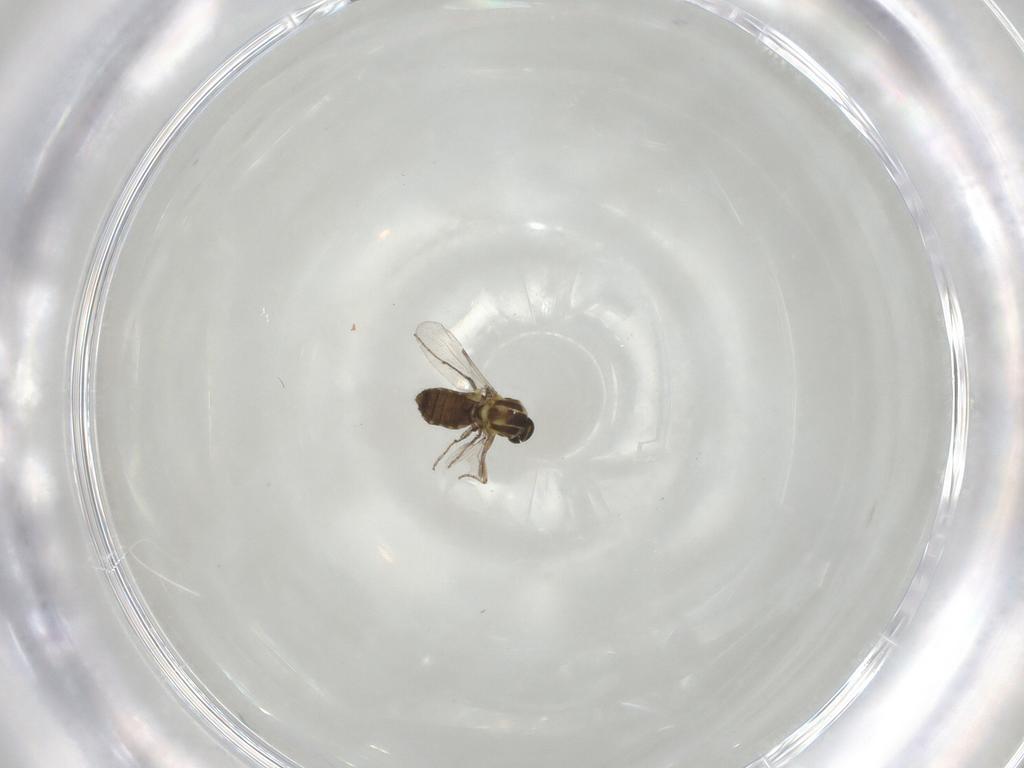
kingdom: Animalia
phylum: Arthropoda
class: Insecta
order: Diptera
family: Ceratopogonidae
